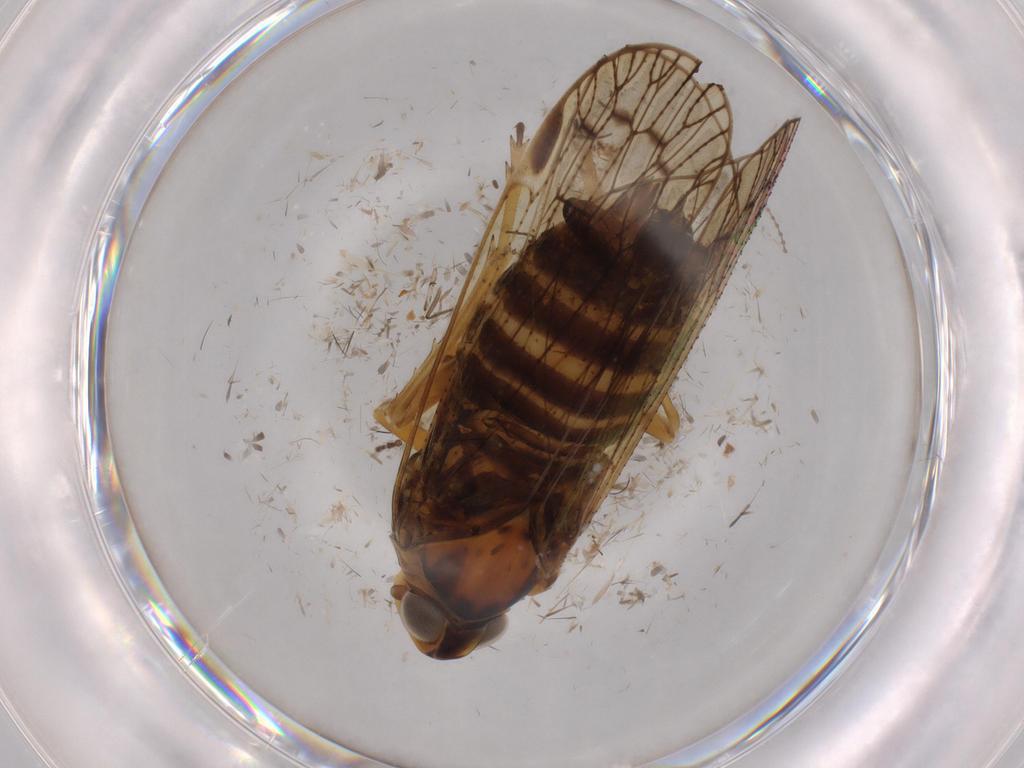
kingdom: Animalia
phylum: Arthropoda
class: Insecta
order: Hemiptera
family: Cixiidae
